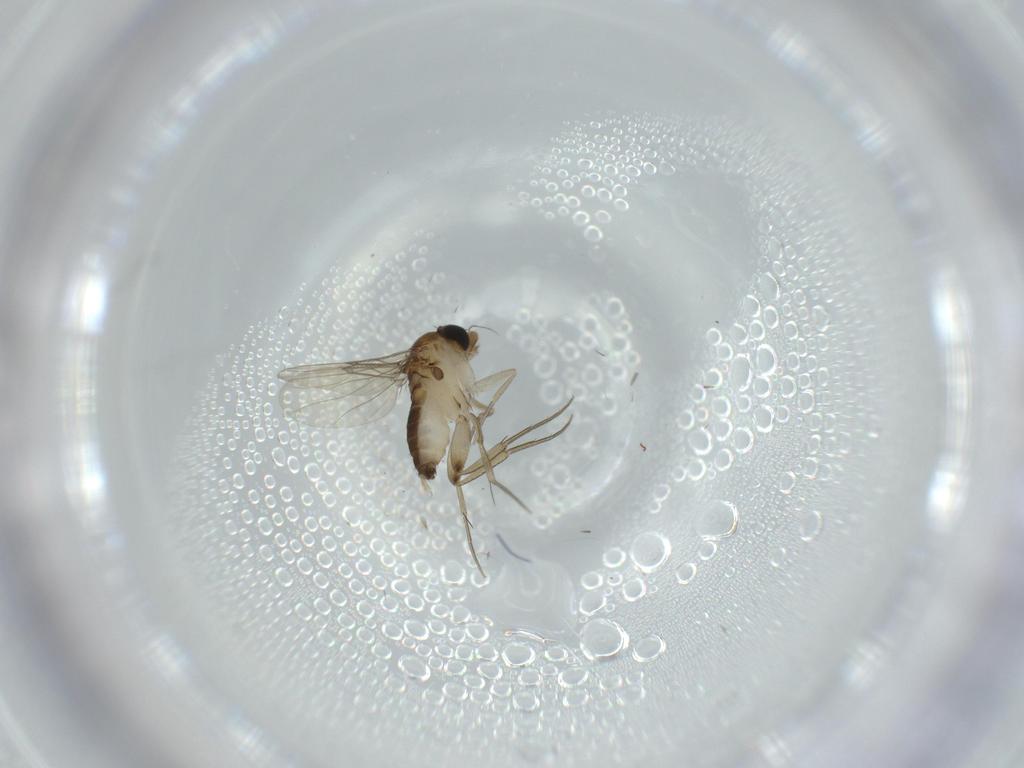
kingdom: Animalia
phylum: Arthropoda
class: Insecta
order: Diptera
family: Phoridae
